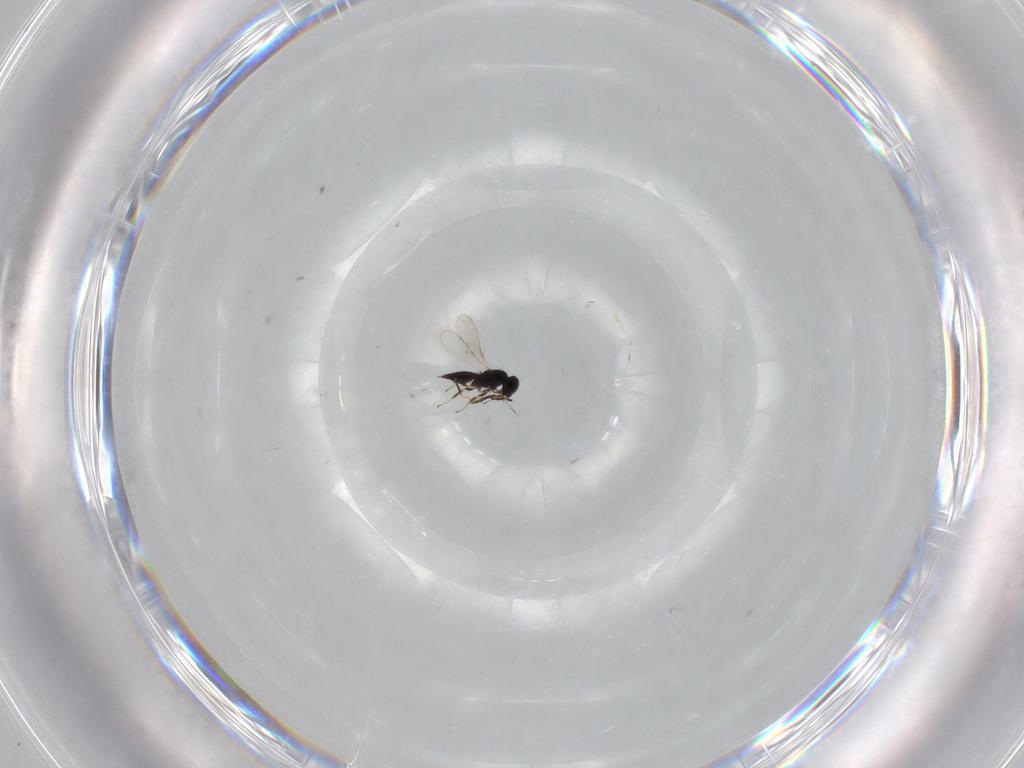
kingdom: Animalia
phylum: Arthropoda
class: Insecta
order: Hymenoptera
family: Scelionidae
